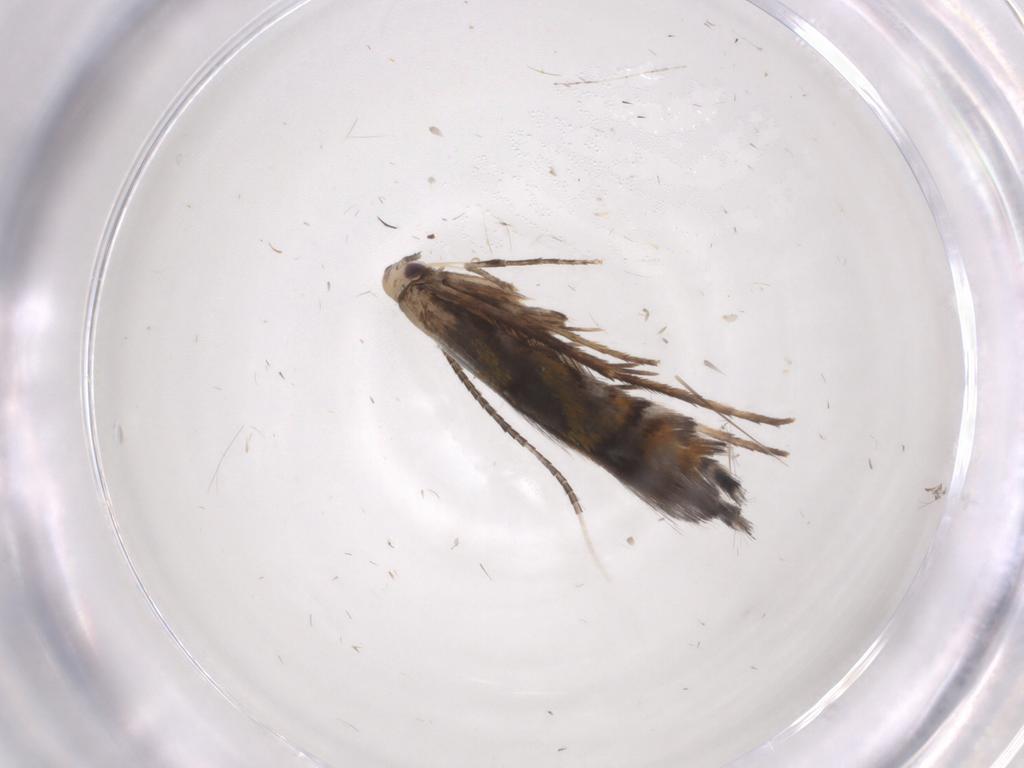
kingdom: Animalia
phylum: Arthropoda
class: Insecta
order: Lepidoptera
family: Gracillariidae
